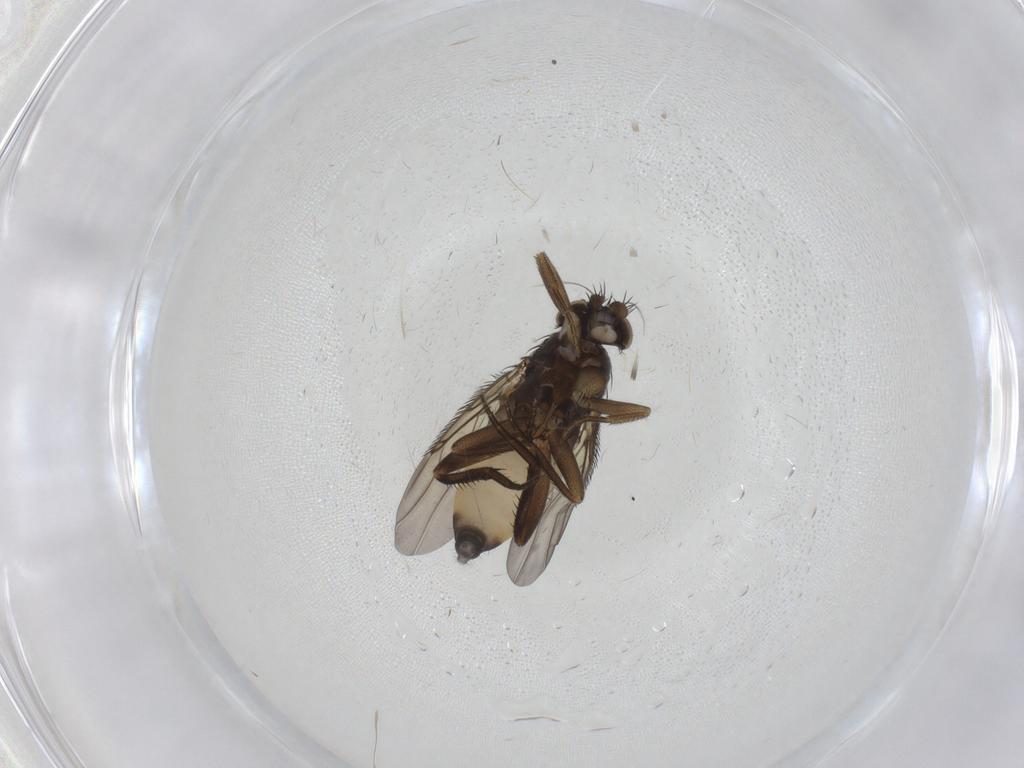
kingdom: Animalia
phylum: Arthropoda
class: Insecta
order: Diptera
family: Phoridae
